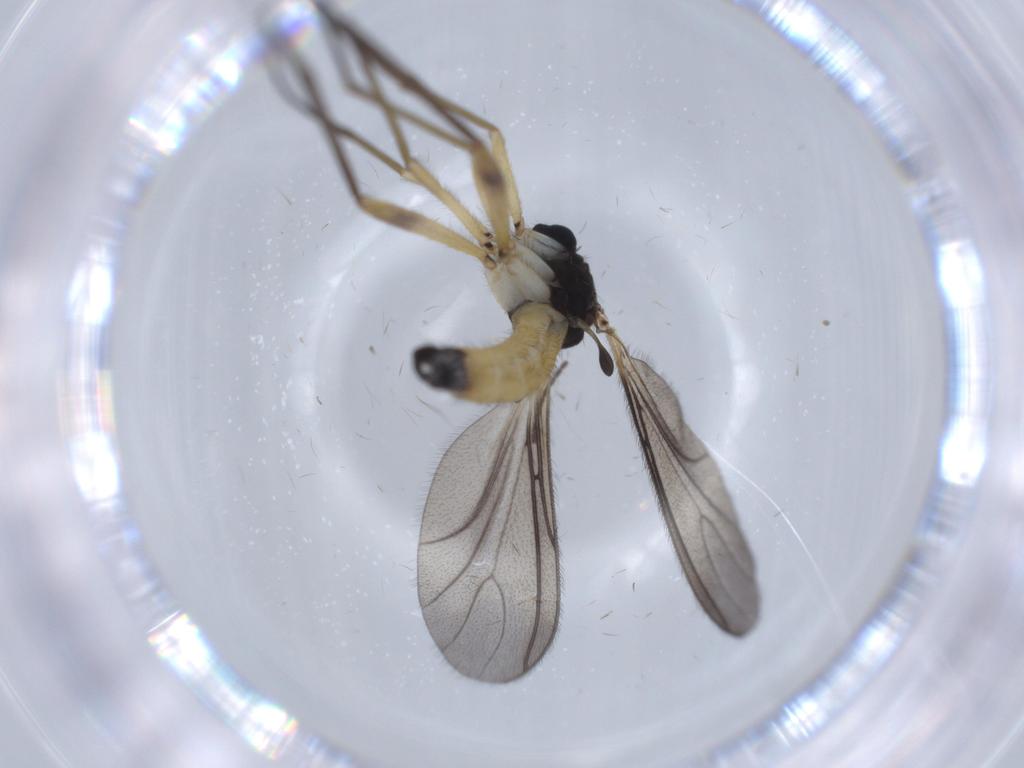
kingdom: Animalia
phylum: Arthropoda
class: Insecta
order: Diptera
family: Sciaridae
